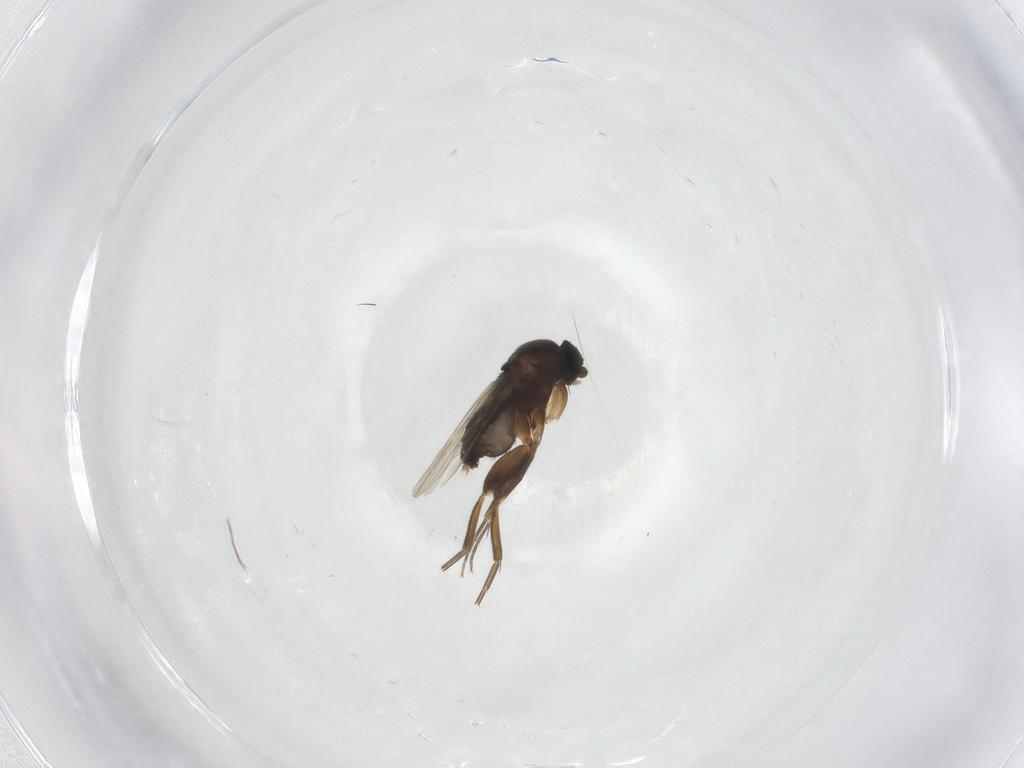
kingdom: Animalia
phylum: Arthropoda
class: Insecta
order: Diptera
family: Phoridae
